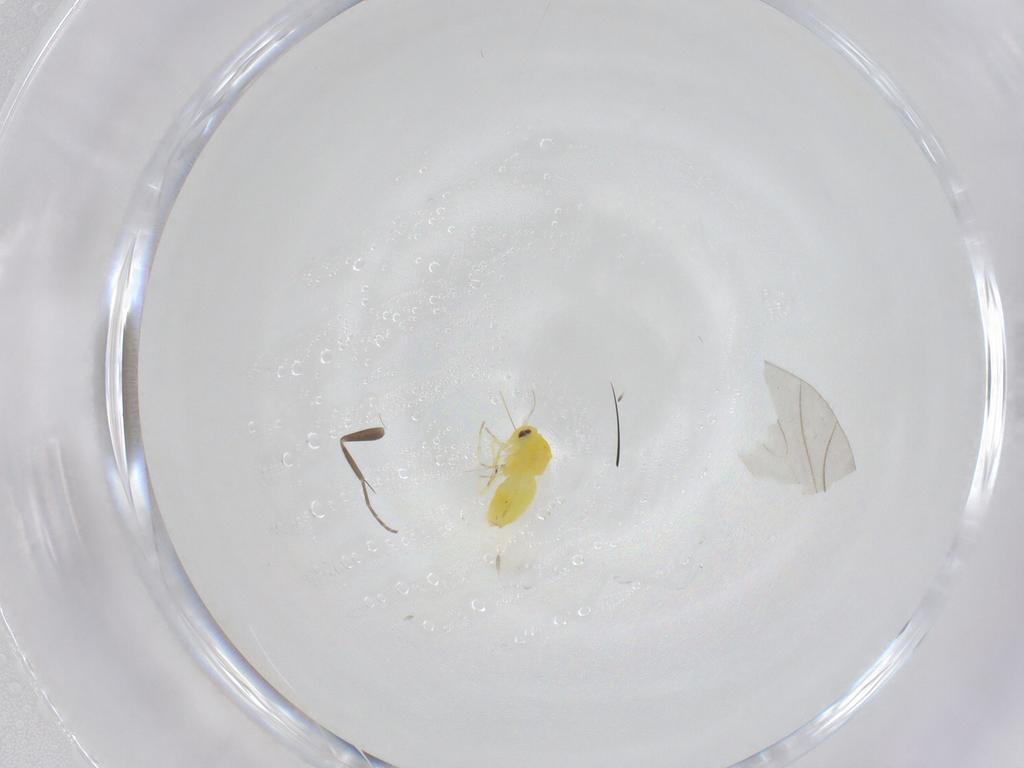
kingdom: Animalia
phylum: Arthropoda
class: Insecta
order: Hemiptera
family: Aleyrodidae
